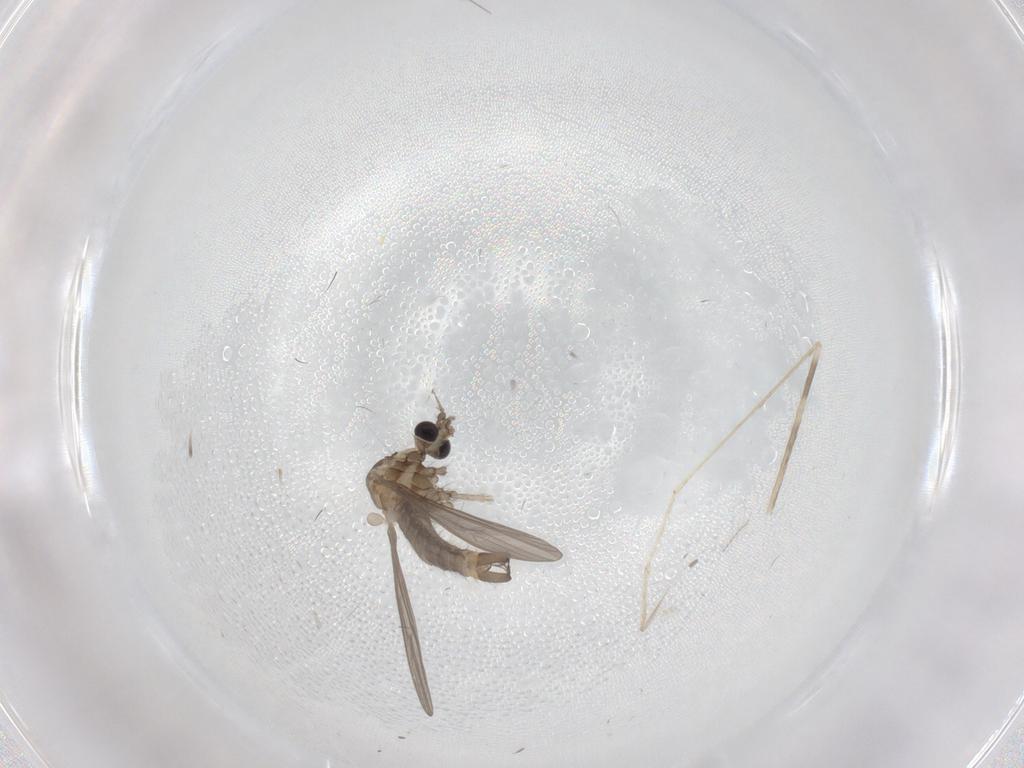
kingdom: Animalia
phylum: Arthropoda
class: Insecta
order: Diptera
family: Limoniidae
